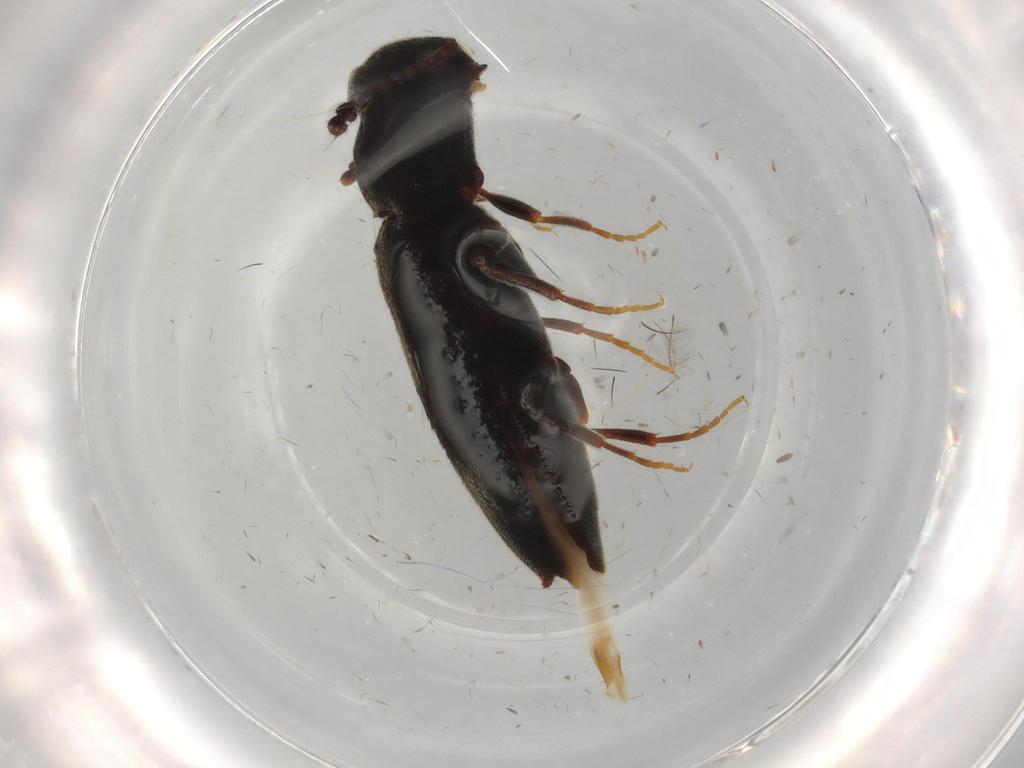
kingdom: Animalia
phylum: Arthropoda
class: Insecta
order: Coleoptera
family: Eucnemidae
